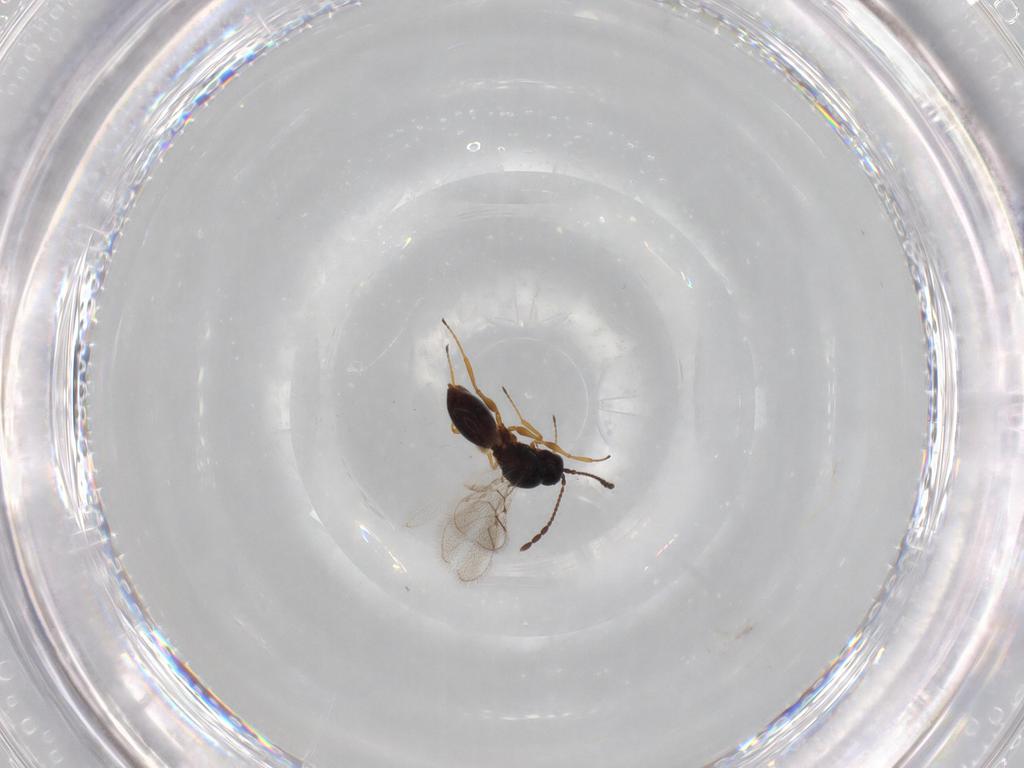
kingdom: Animalia
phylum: Arthropoda
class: Insecta
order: Hymenoptera
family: Figitidae
